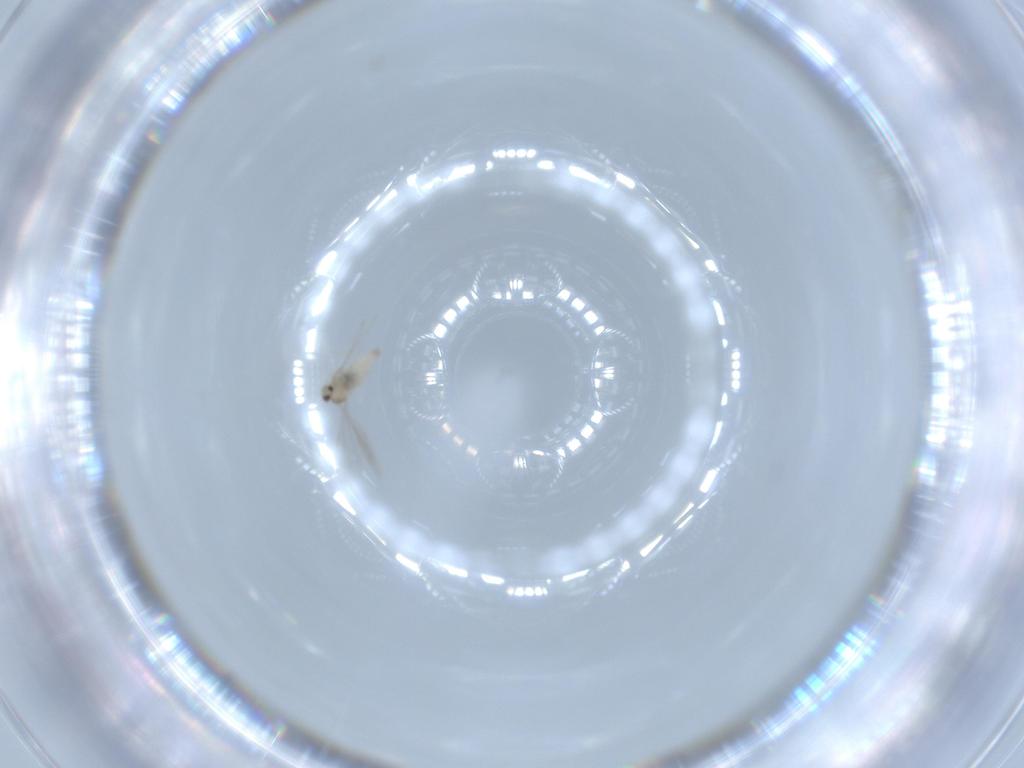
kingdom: Animalia
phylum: Arthropoda
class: Insecta
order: Diptera
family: Cecidomyiidae
